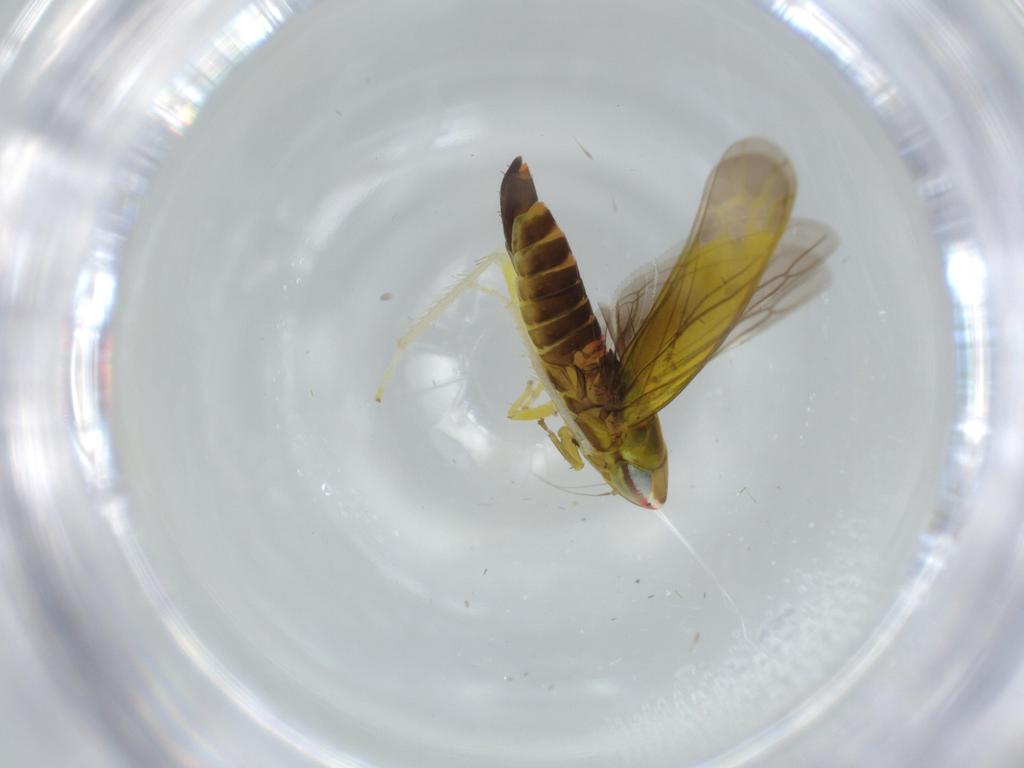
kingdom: Animalia
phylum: Arthropoda
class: Insecta
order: Hemiptera
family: Cicadellidae
